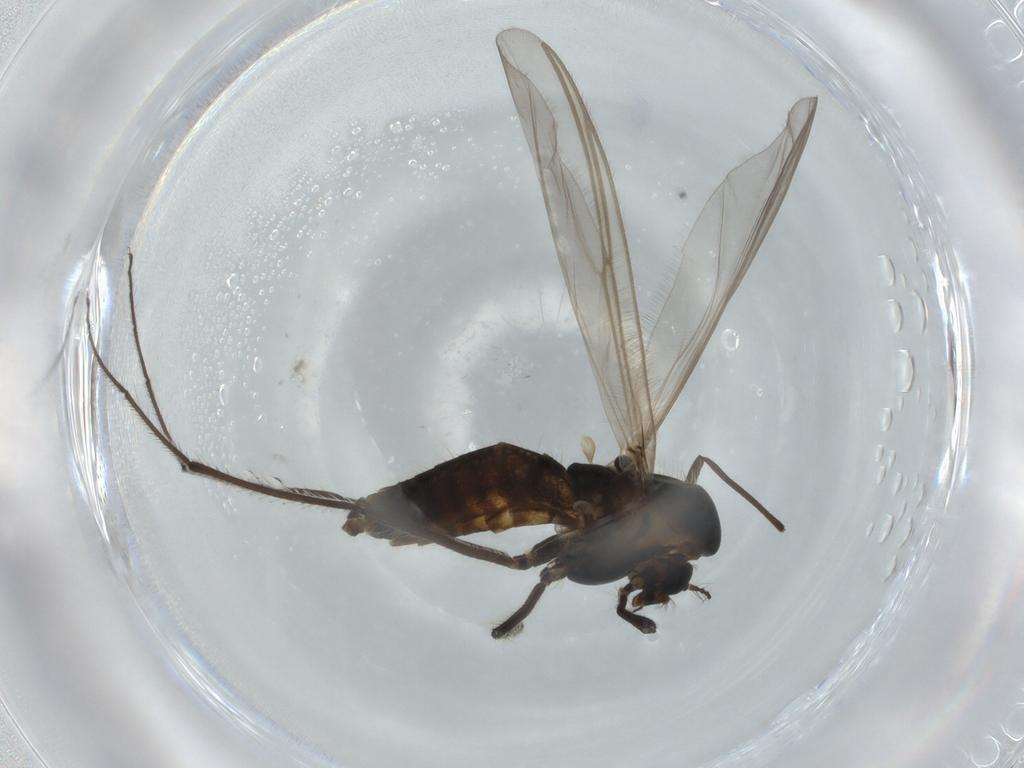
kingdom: Animalia
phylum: Arthropoda
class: Insecta
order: Diptera
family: Chironomidae
